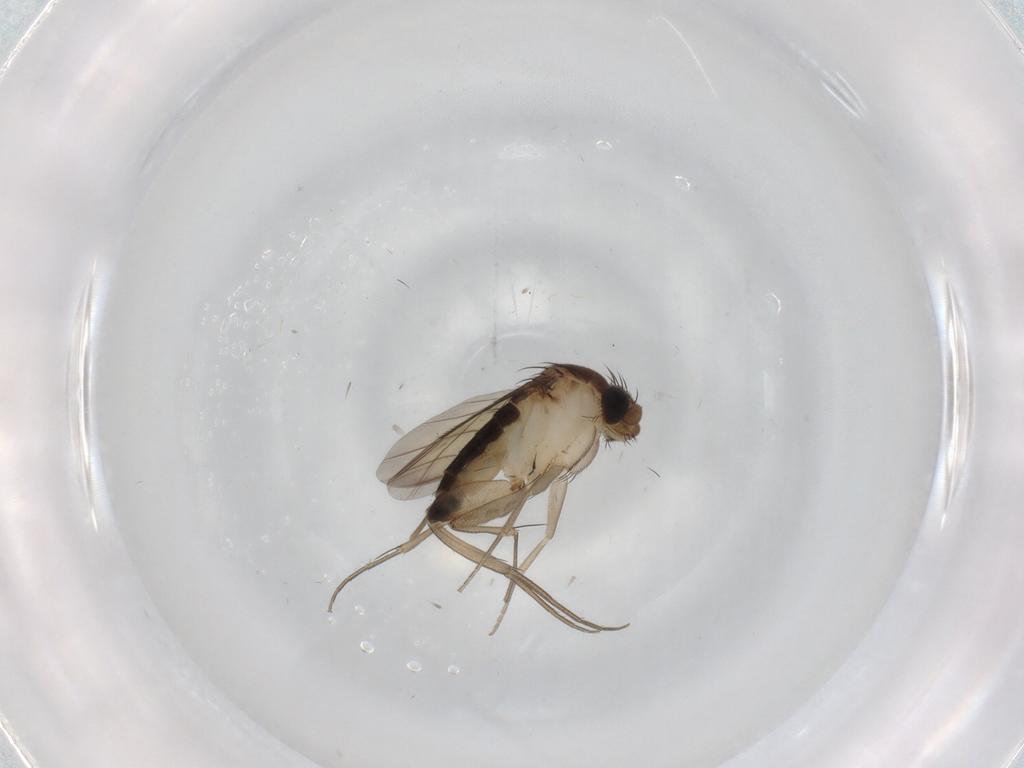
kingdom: Animalia
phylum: Arthropoda
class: Insecta
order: Diptera
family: Phoridae
